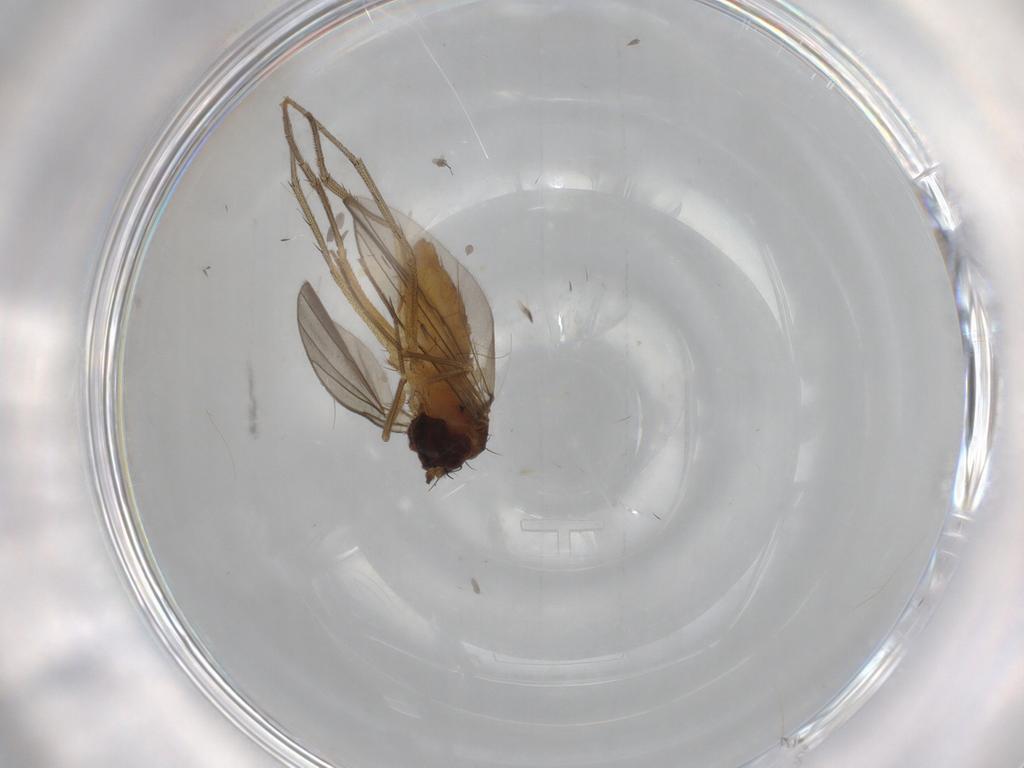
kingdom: Animalia
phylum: Arthropoda
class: Insecta
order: Diptera
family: Dolichopodidae
